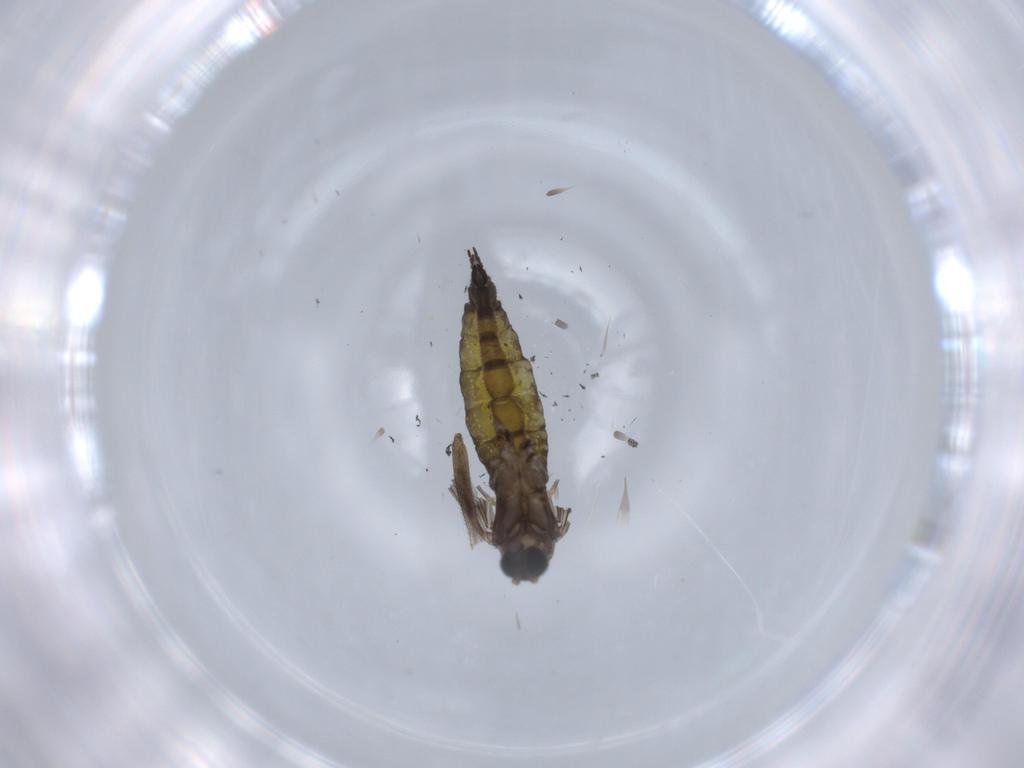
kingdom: Animalia
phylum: Arthropoda
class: Insecta
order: Diptera
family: Sciaridae
